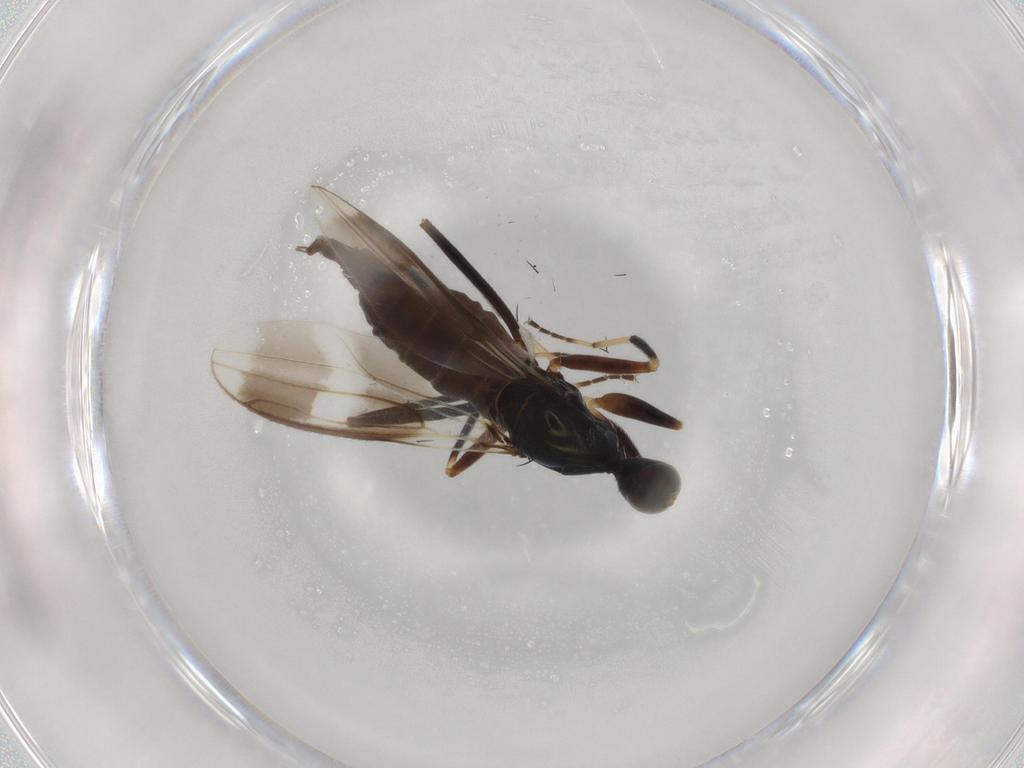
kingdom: Animalia
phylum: Arthropoda
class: Insecta
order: Diptera
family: Hybotidae
